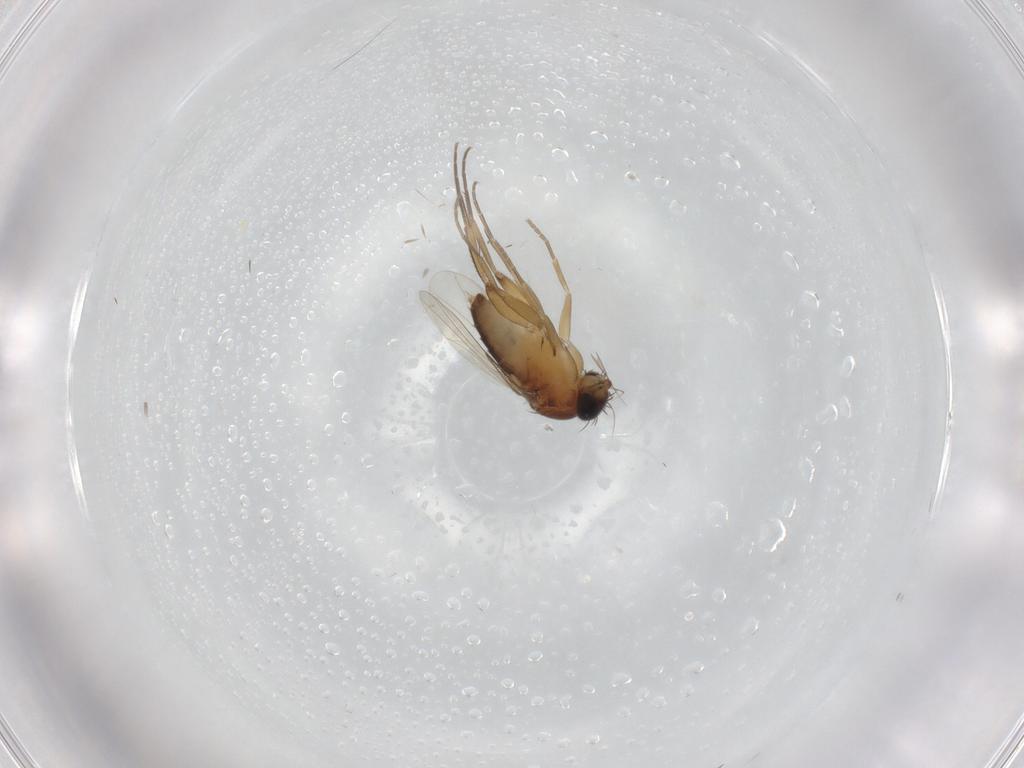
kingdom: Animalia
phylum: Arthropoda
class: Insecta
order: Diptera
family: Phoridae
